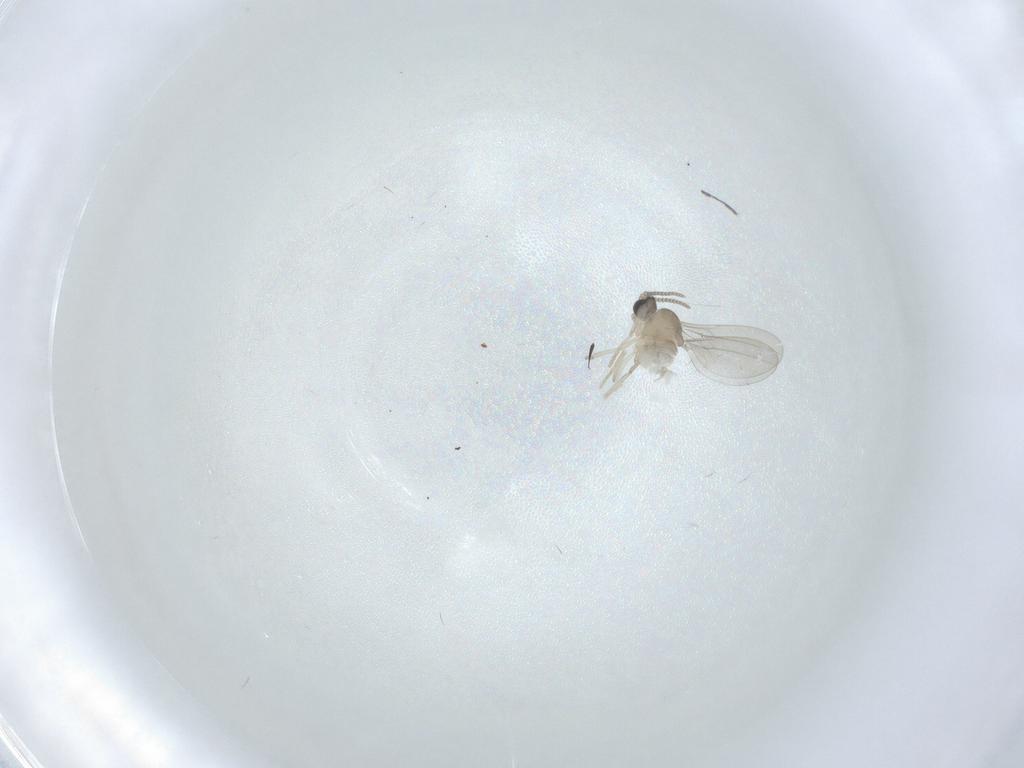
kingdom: Animalia
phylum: Arthropoda
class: Insecta
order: Diptera
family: Cecidomyiidae
